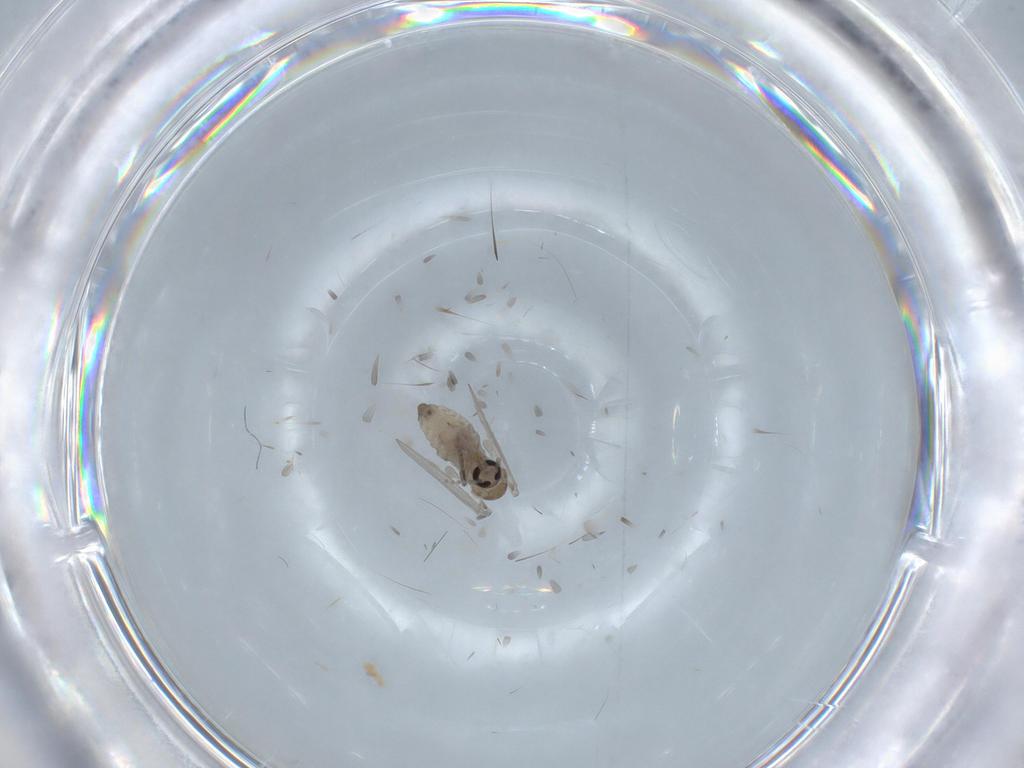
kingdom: Animalia
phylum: Arthropoda
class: Insecta
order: Diptera
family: Psychodidae
